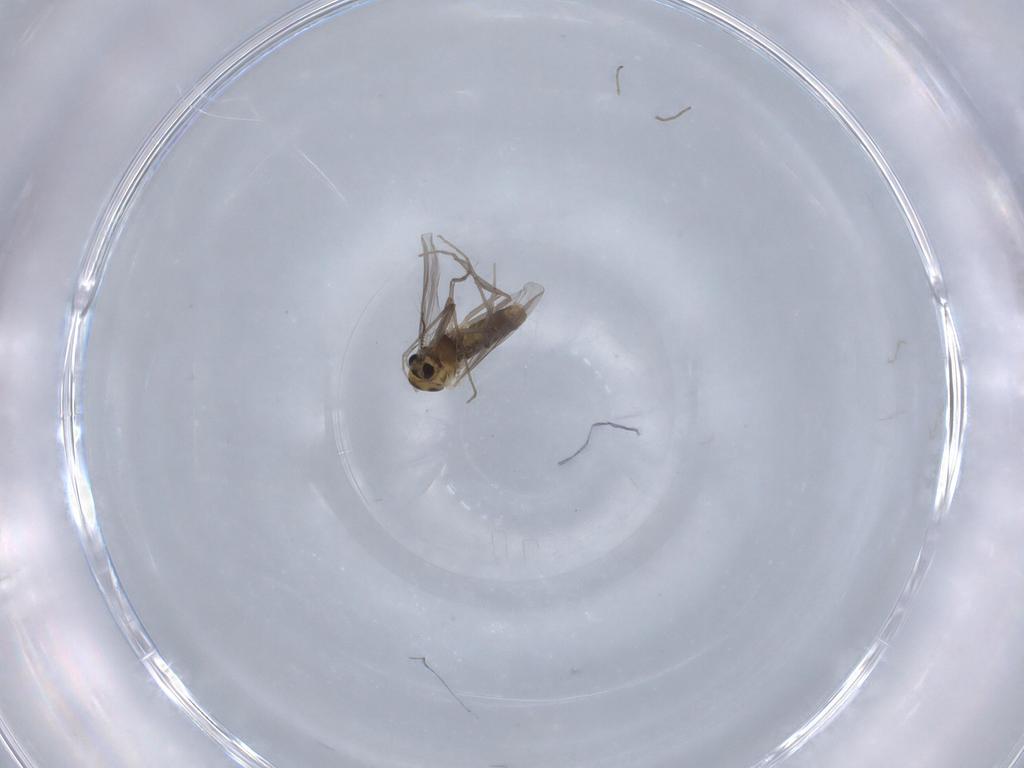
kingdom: Animalia
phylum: Arthropoda
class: Insecta
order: Diptera
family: Chironomidae
